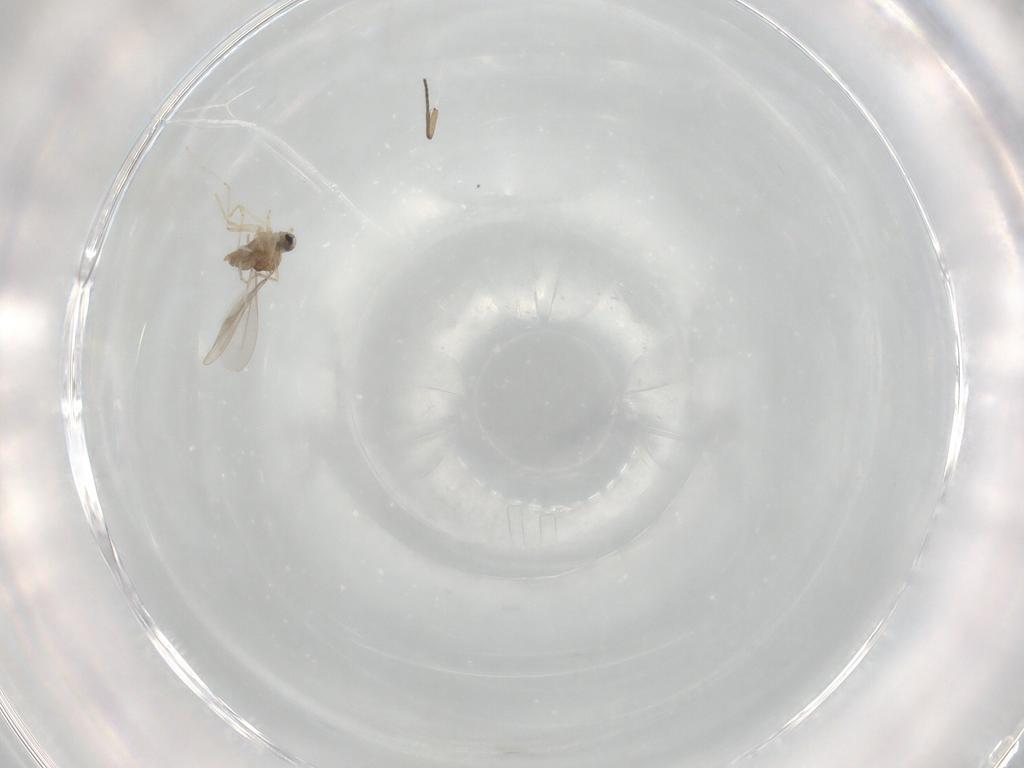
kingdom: Animalia
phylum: Arthropoda
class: Insecta
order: Diptera
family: Sciaridae
